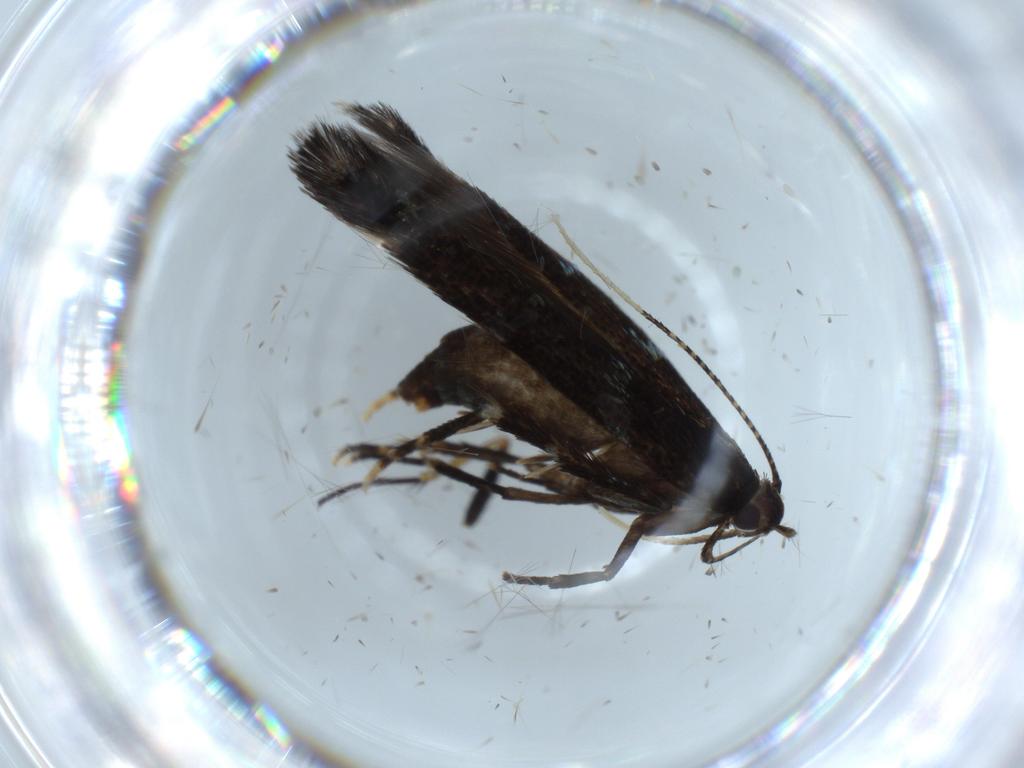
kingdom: Animalia
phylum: Arthropoda
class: Insecta
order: Lepidoptera
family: Cosmopterigidae
